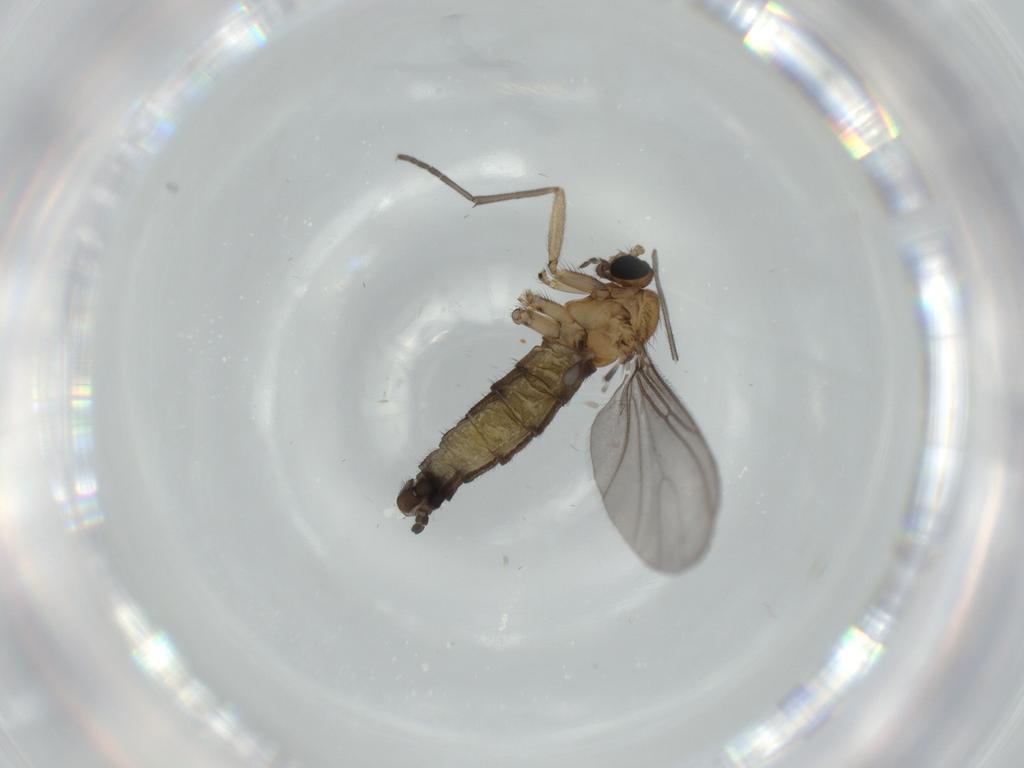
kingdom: Animalia
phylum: Arthropoda
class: Insecta
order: Diptera
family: Sciaridae
